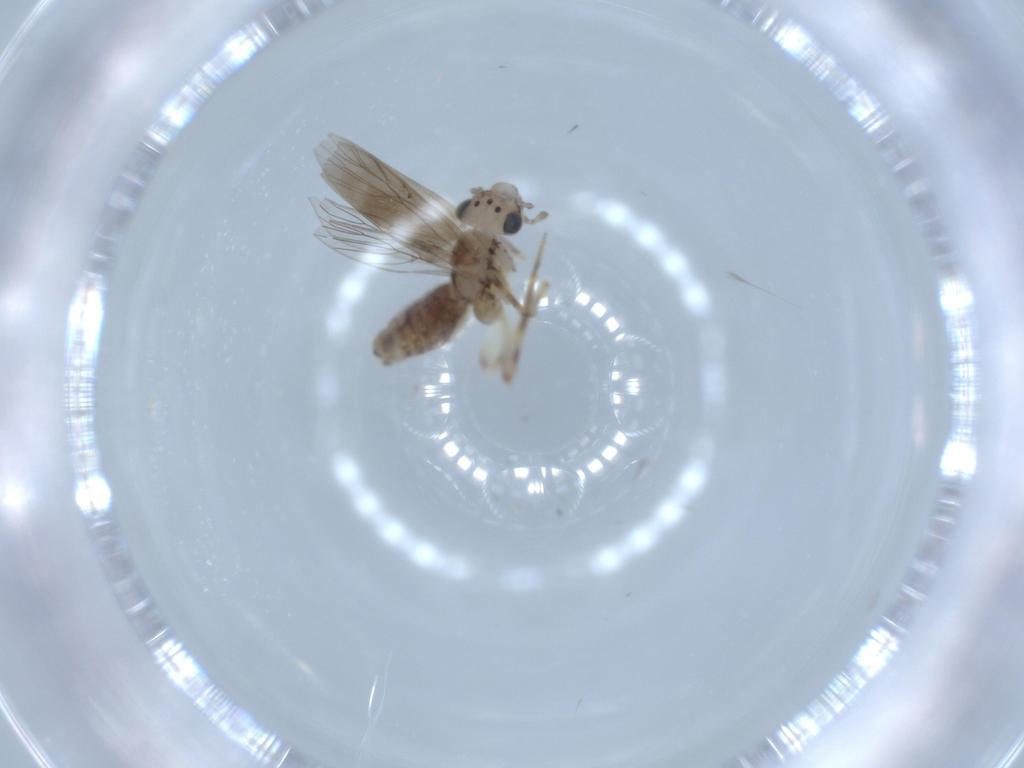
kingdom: Animalia
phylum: Arthropoda
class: Insecta
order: Psocodea
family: Lepidopsocidae
